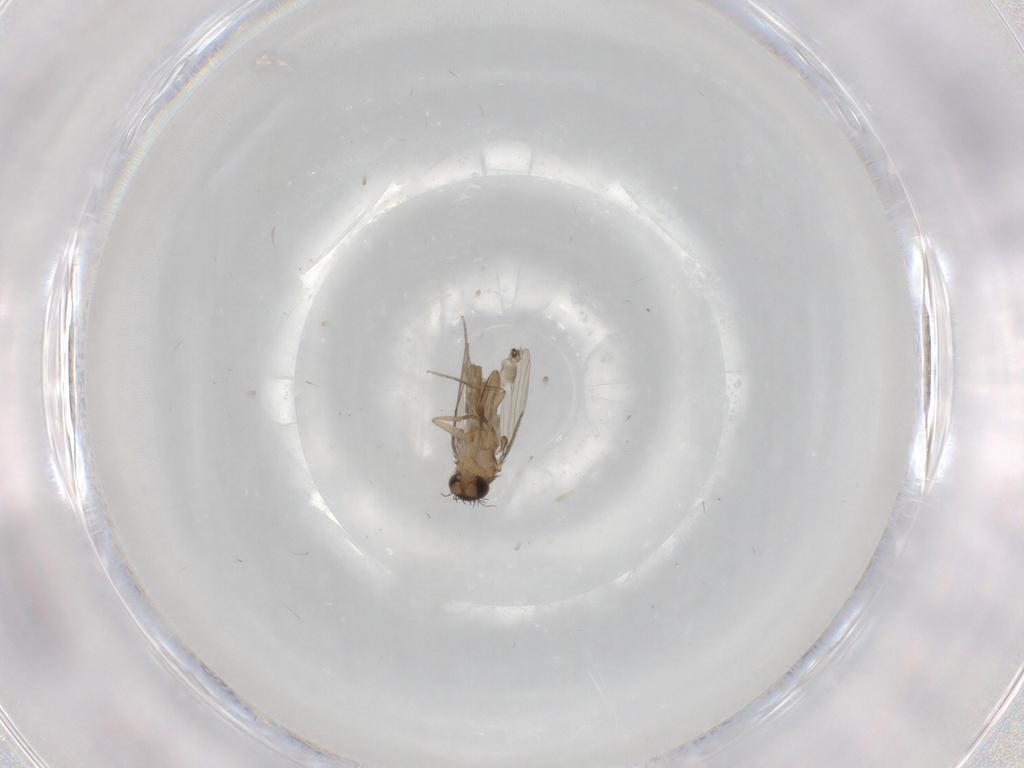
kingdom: Animalia
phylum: Arthropoda
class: Insecta
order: Diptera
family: Phoridae
